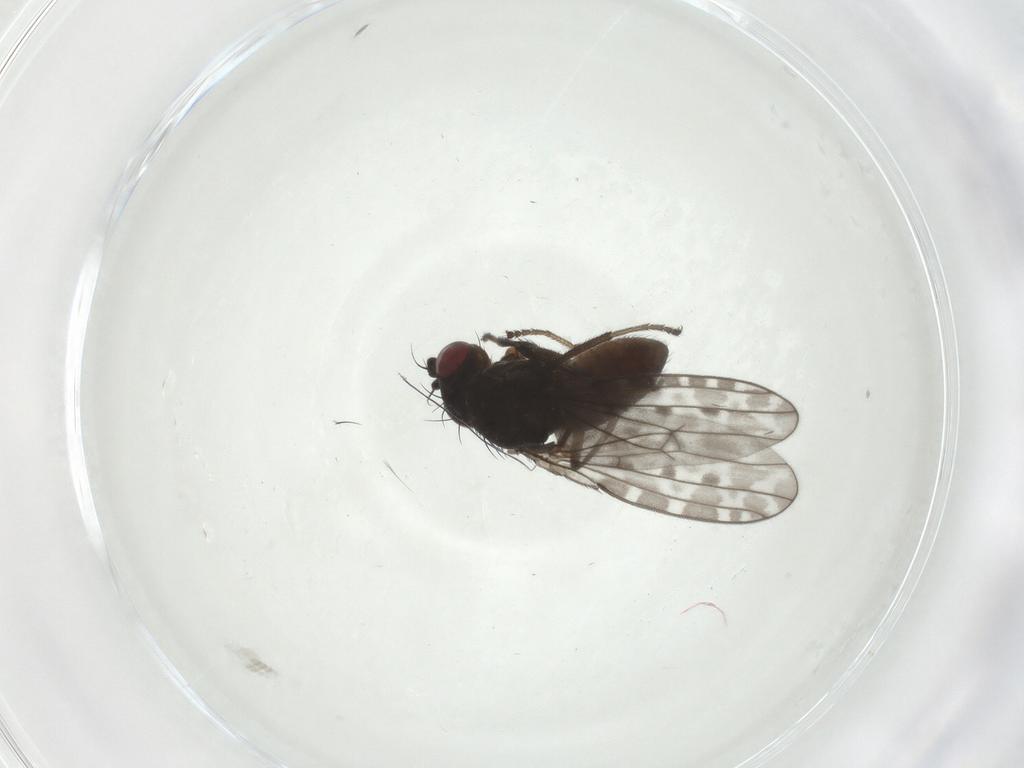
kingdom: Animalia
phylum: Arthropoda
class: Insecta
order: Diptera
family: Ephydridae
